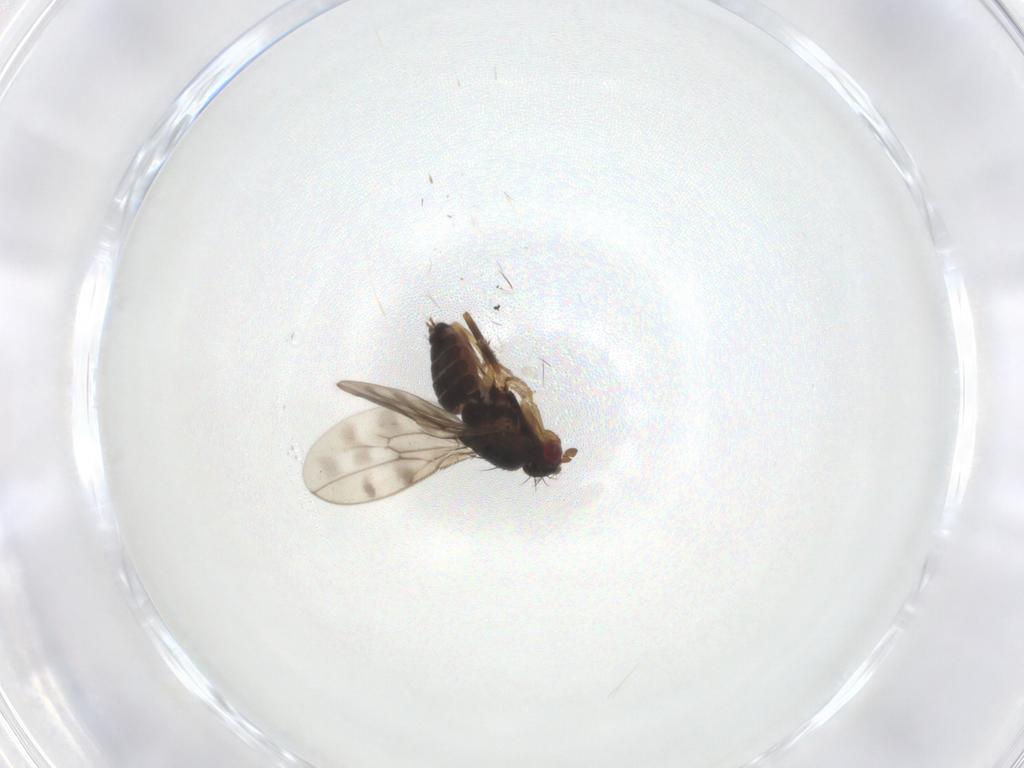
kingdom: Animalia
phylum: Arthropoda
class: Insecta
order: Diptera
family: Sphaeroceridae
